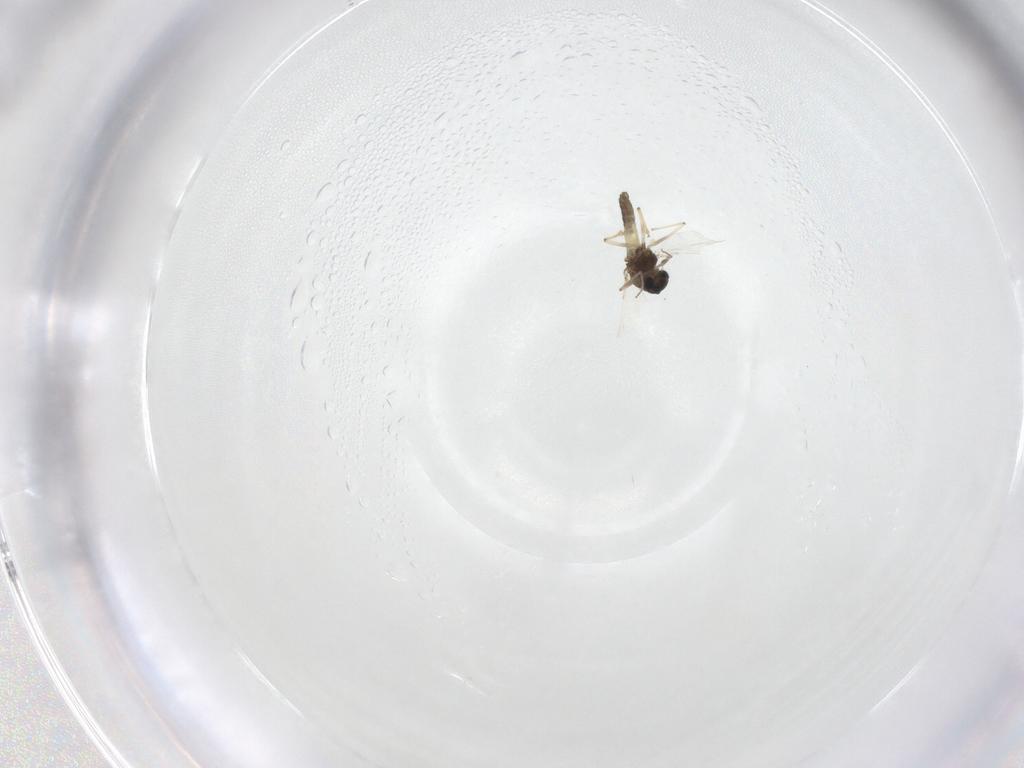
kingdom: Animalia
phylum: Arthropoda
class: Insecta
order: Diptera
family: Chironomidae
